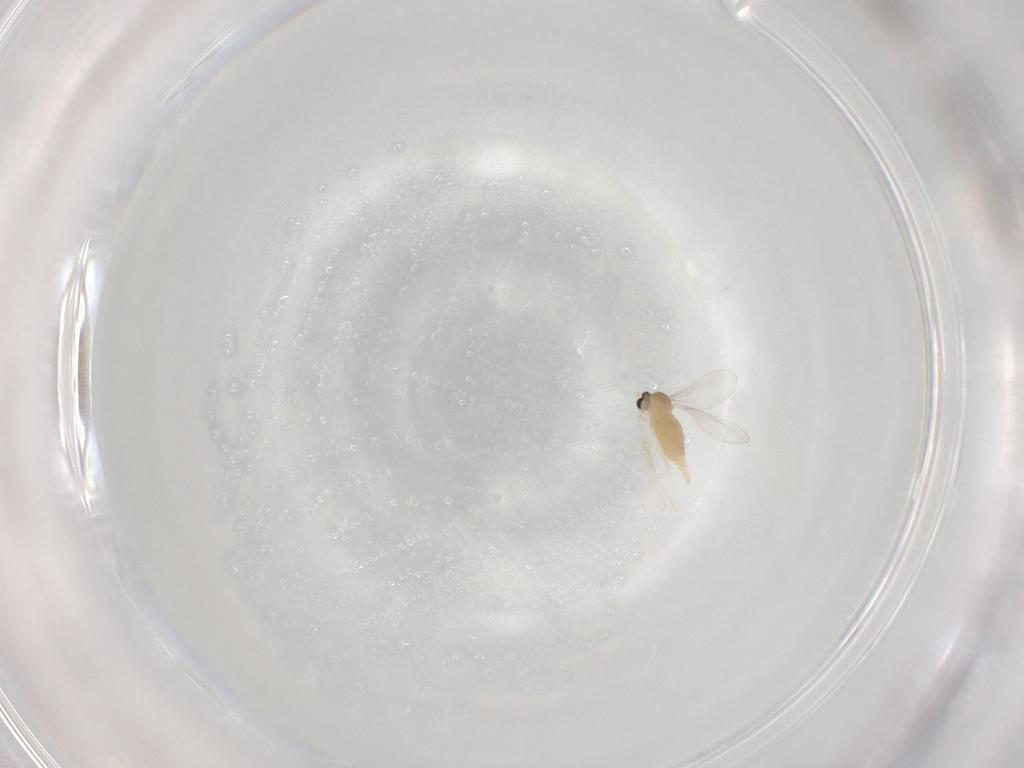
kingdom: Animalia
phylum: Arthropoda
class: Insecta
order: Diptera
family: Cecidomyiidae
